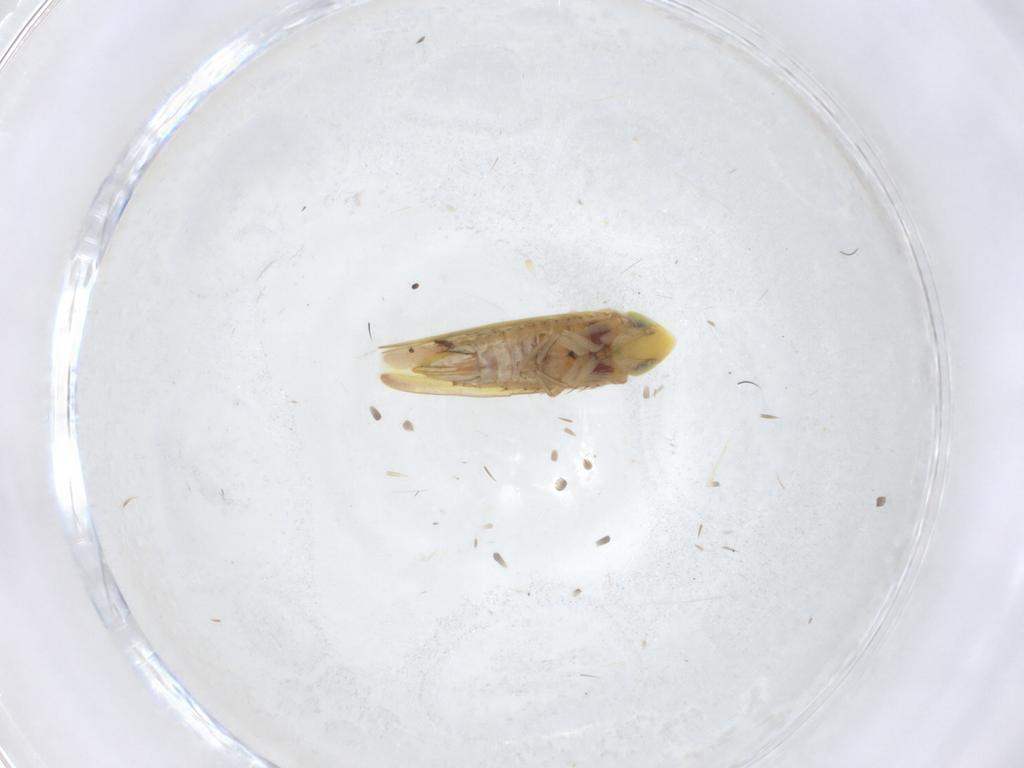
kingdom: Animalia
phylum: Arthropoda
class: Insecta
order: Hemiptera
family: Cicadellidae
